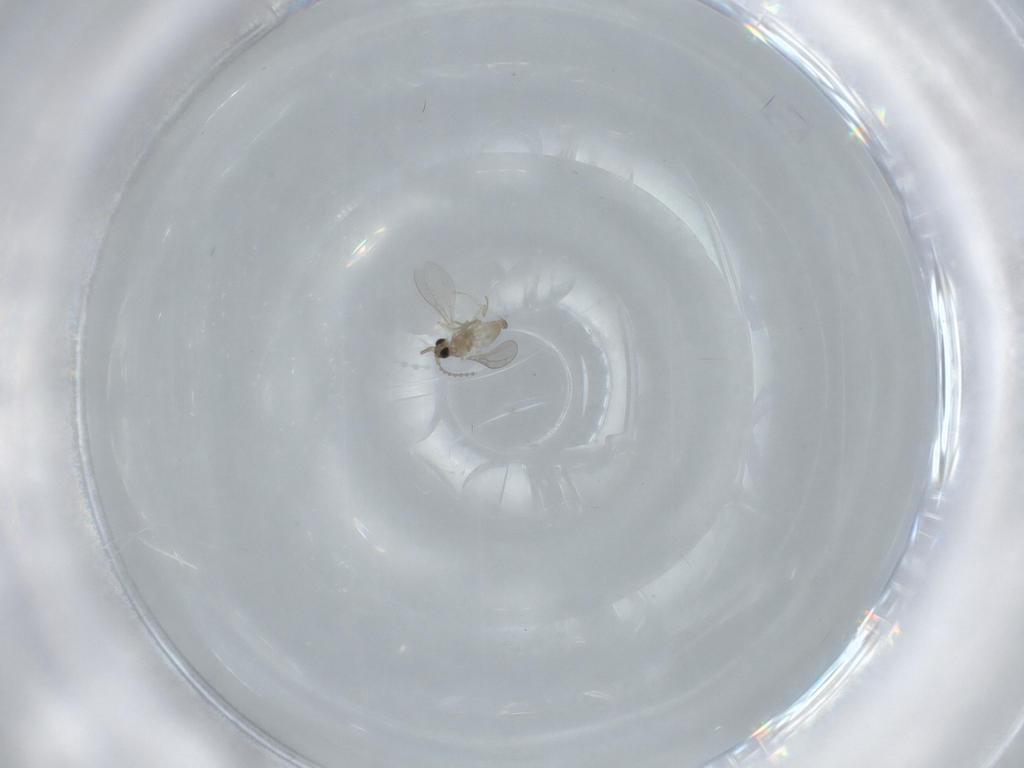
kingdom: Animalia
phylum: Arthropoda
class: Insecta
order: Diptera
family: Cecidomyiidae
